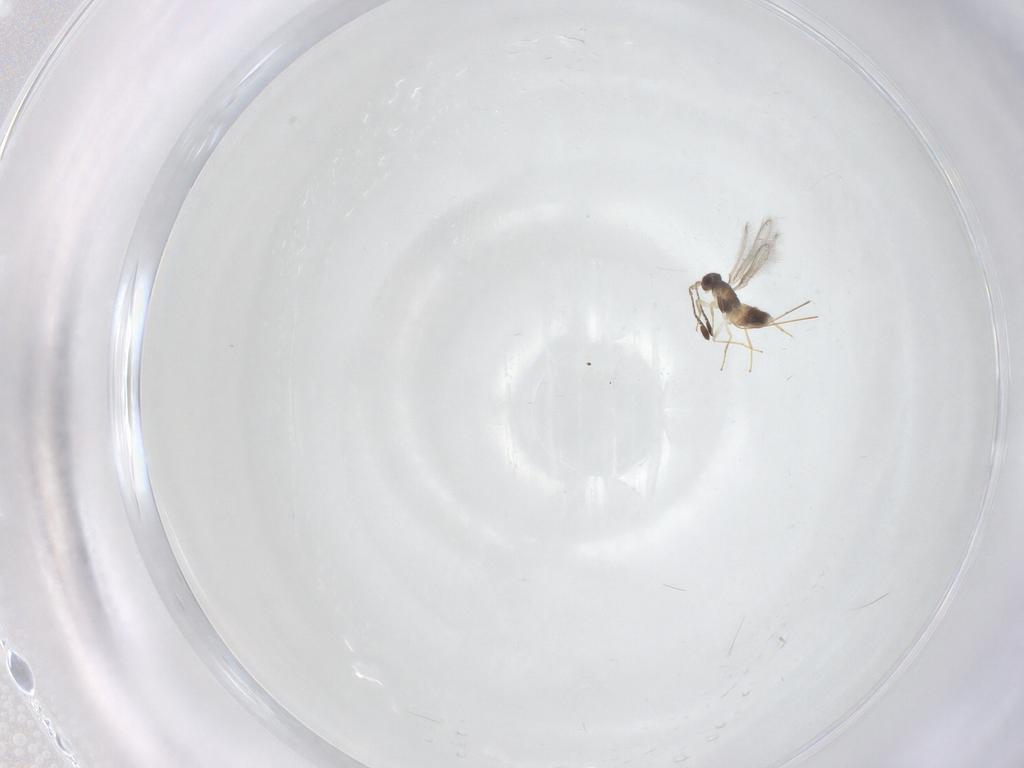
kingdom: Animalia
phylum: Arthropoda
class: Insecta
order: Hymenoptera
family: Mymaridae
